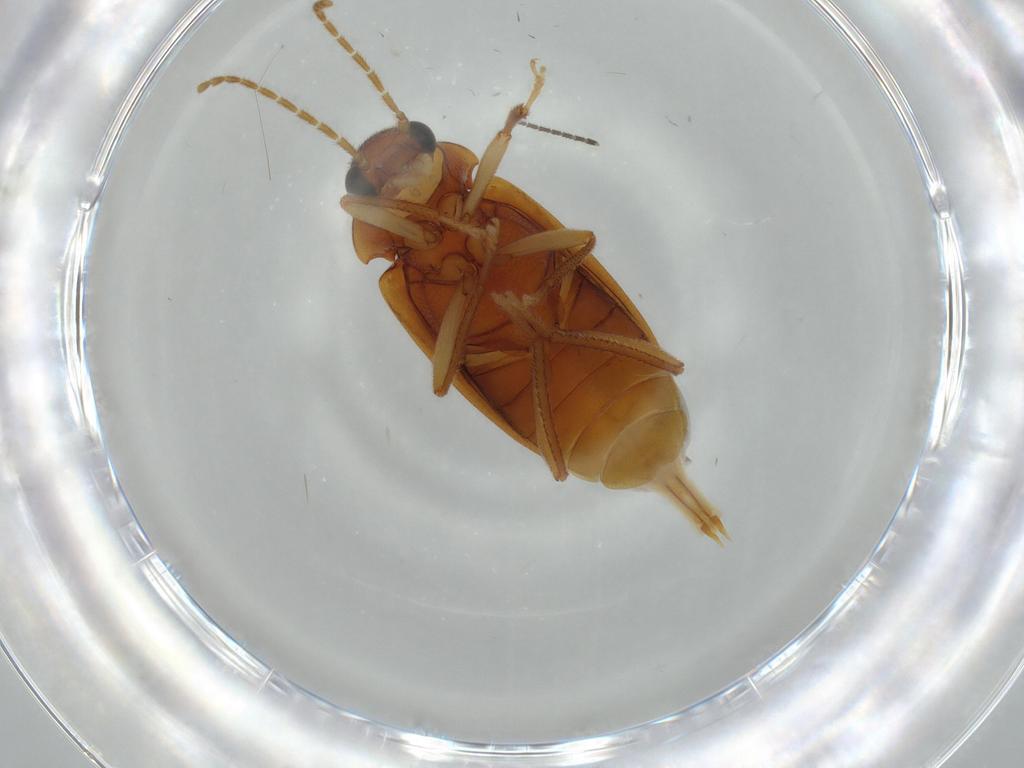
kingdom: Animalia
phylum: Arthropoda
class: Insecta
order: Coleoptera
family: Ptilodactylidae
